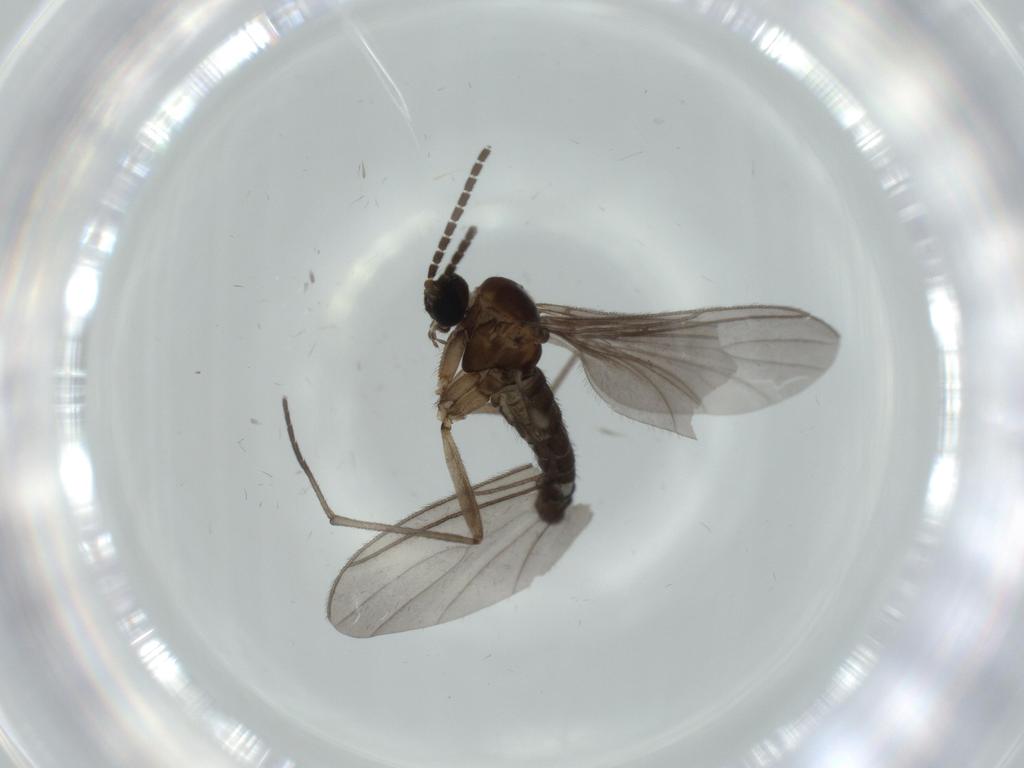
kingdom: Animalia
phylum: Arthropoda
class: Insecta
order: Diptera
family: Sciaridae
